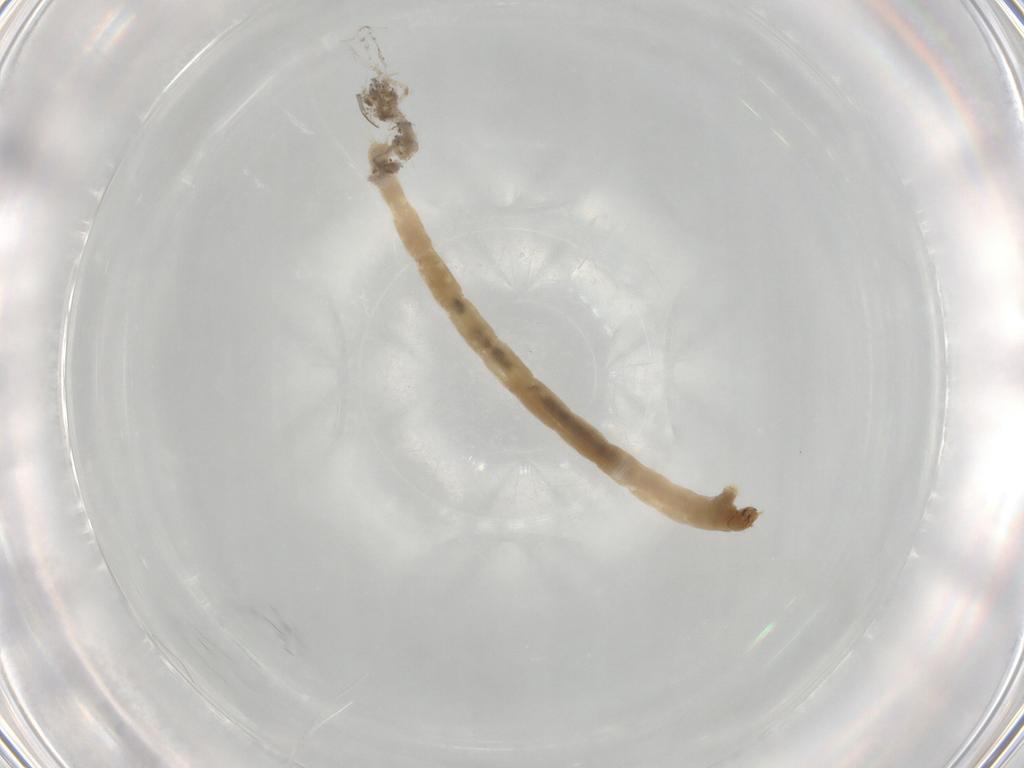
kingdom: Animalia
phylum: Arthropoda
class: Insecta
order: Diptera
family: Chironomidae
